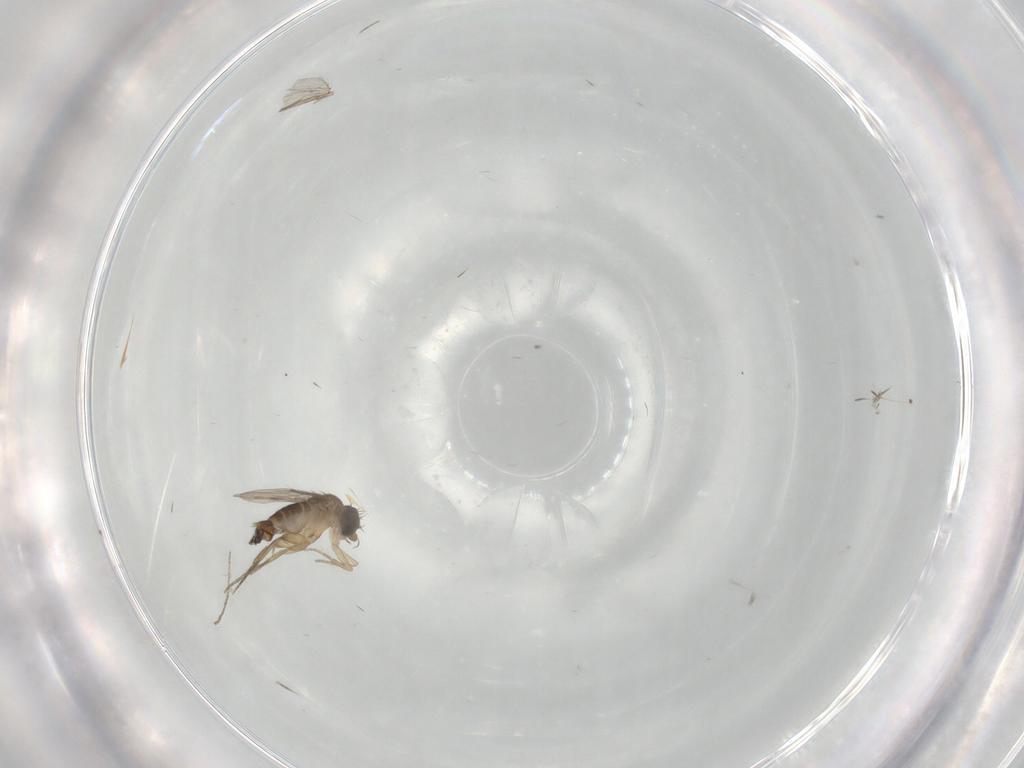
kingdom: Animalia
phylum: Arthropoda
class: Insecta
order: Diptera
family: Phoridae
